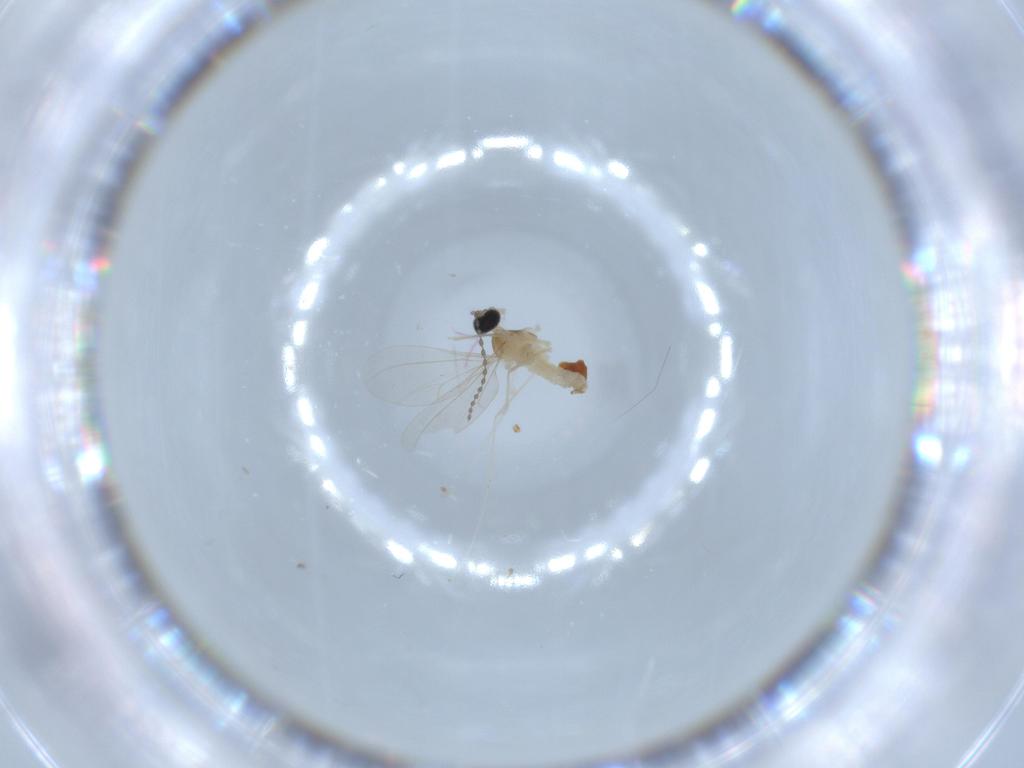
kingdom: Animalia
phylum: Arthropoda
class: Insecta
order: Diptera
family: Cecidomyiidae
